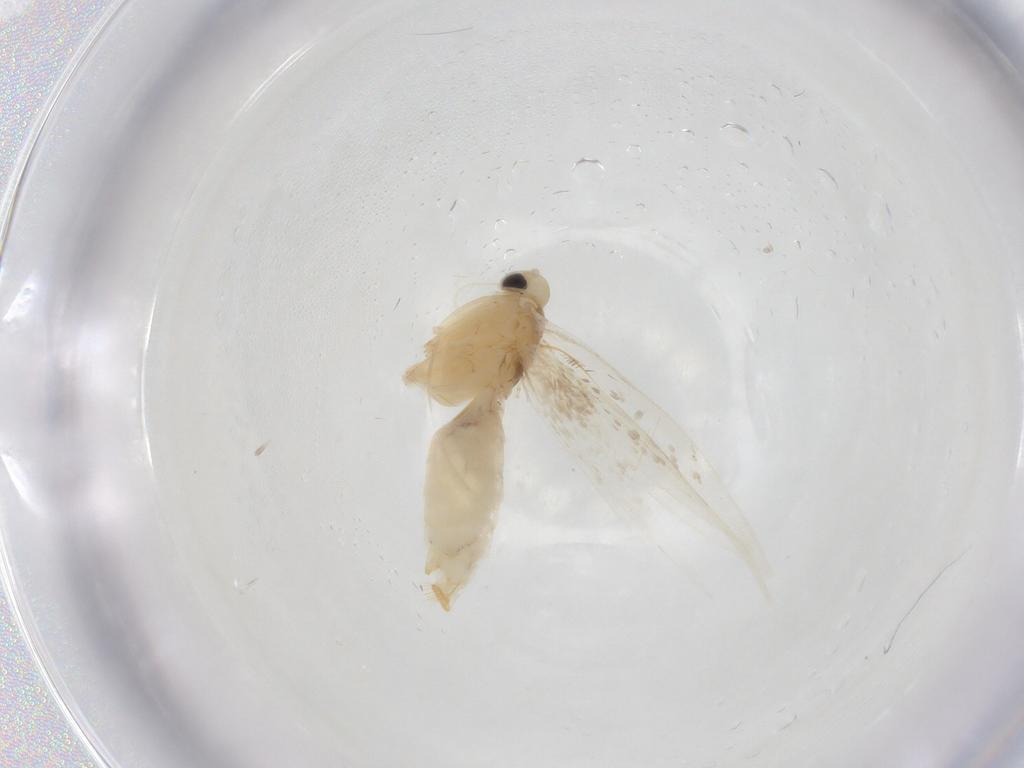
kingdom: Animalia
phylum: Arthropoda
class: Insecta
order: Lepidoptera
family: Gracillariidae
